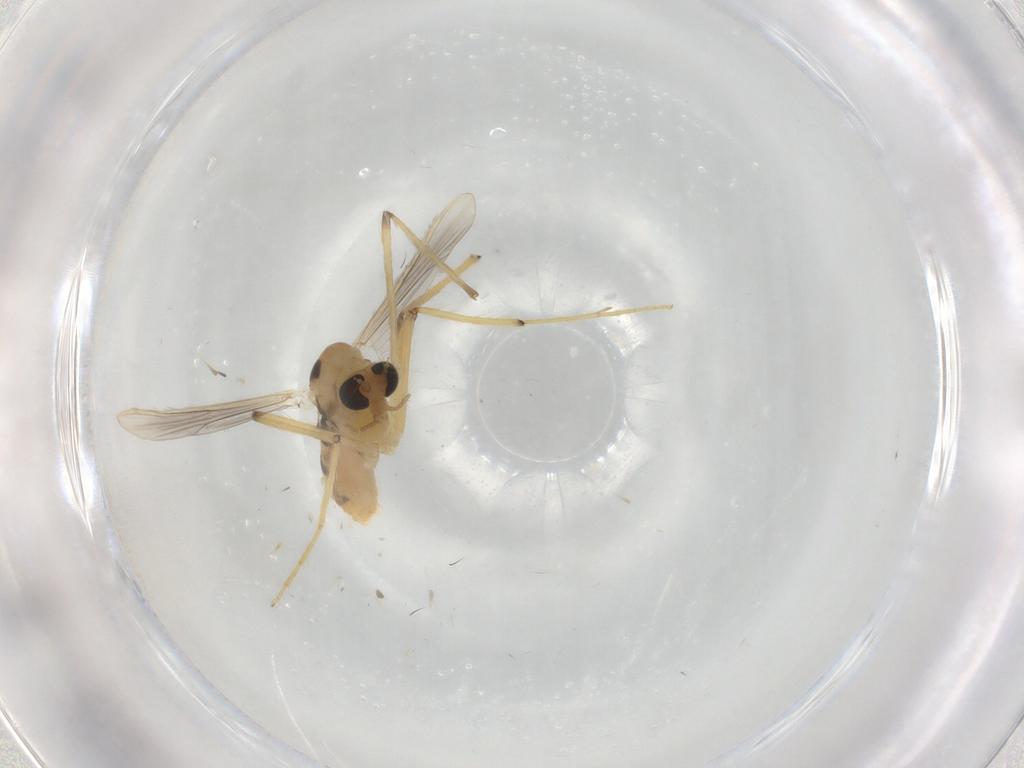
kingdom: Animalia
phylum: Arthropoda
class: Insecta
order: Diptera
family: Chironomidae
